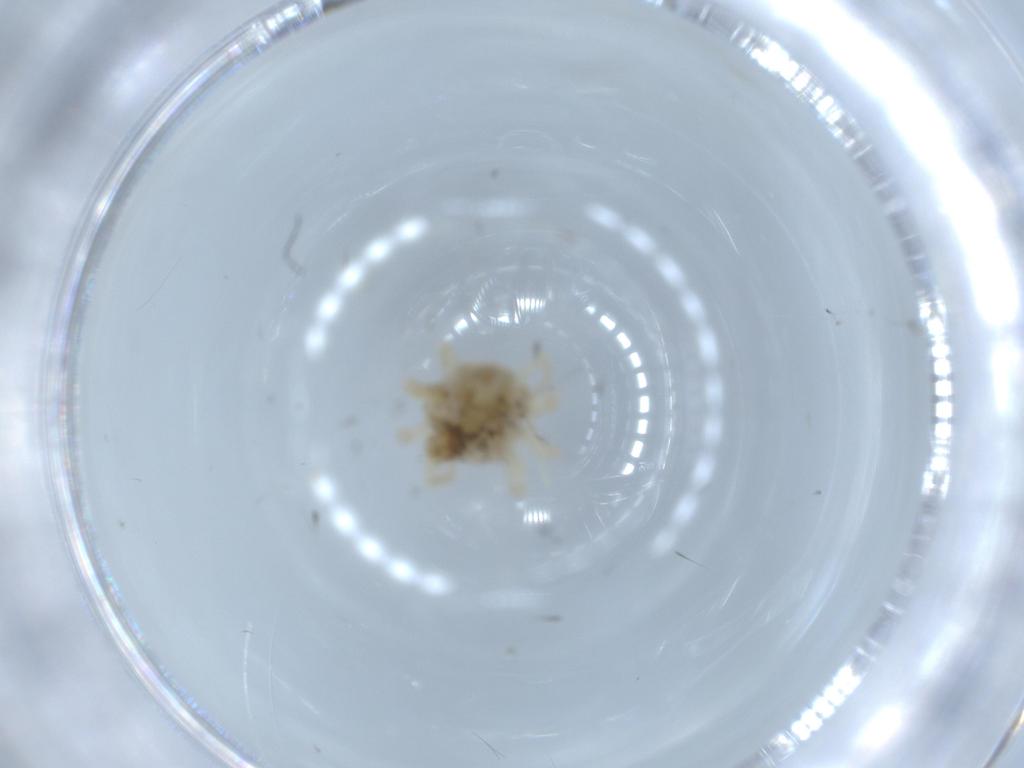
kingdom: Animalia
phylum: Arthropoda
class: Arachnida
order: Trombidiformes
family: Anystidae
